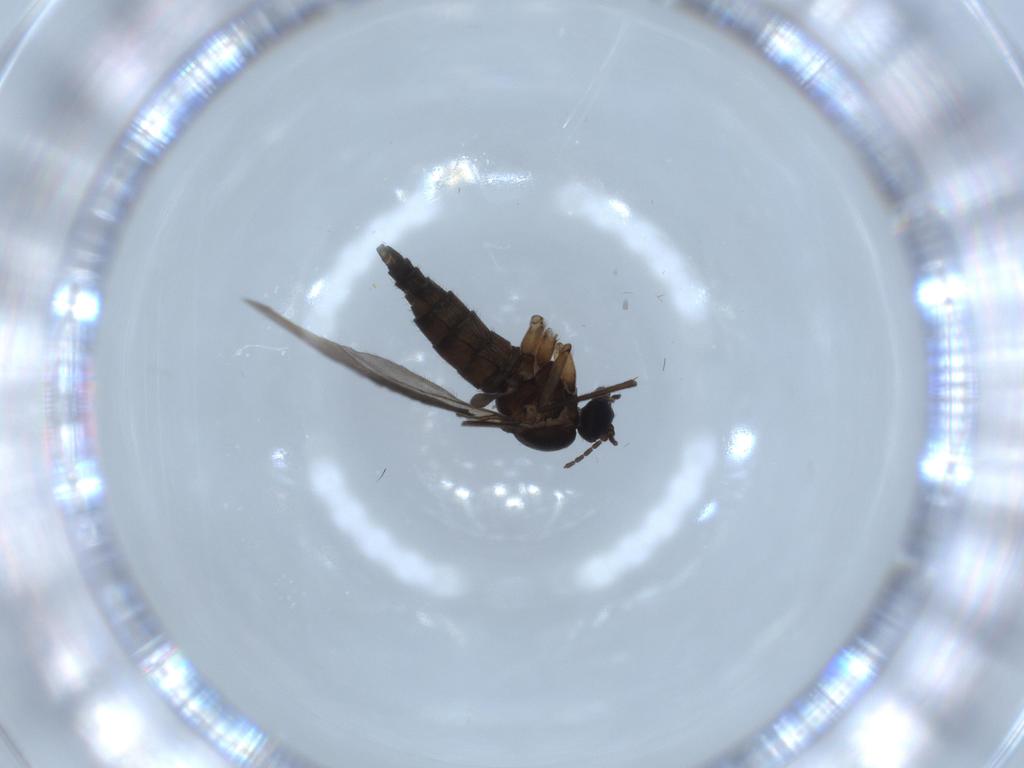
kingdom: Animalia
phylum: Arthropoda
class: Insecta
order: Diptera
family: Sciaridae
